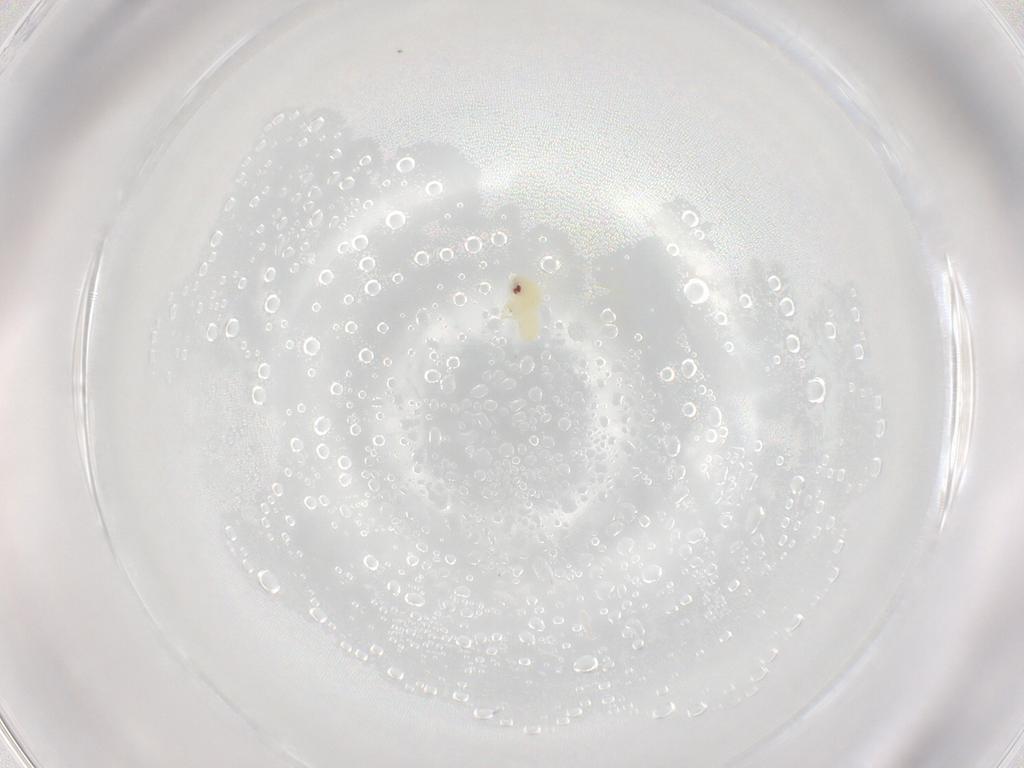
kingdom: Animalia
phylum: Arthropoda
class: Insecta
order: Hemiptera
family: Aleyrodidae
